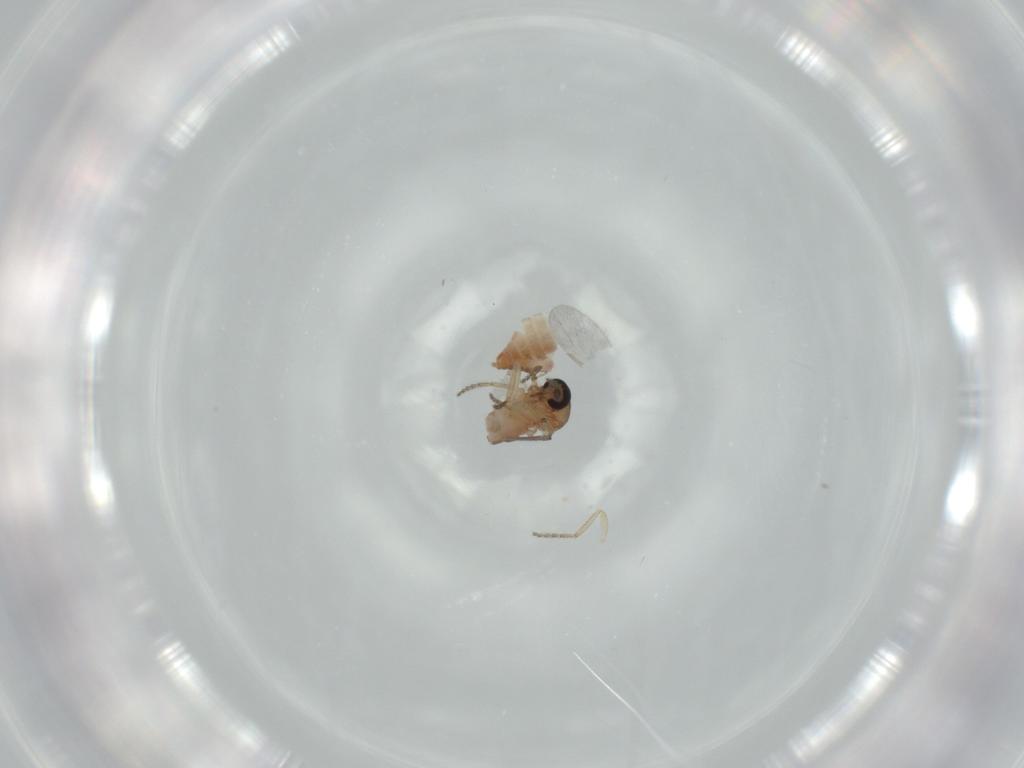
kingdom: Animalia
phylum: Arthropoda
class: Insecta
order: Diptera
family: Ceratopogonidae
